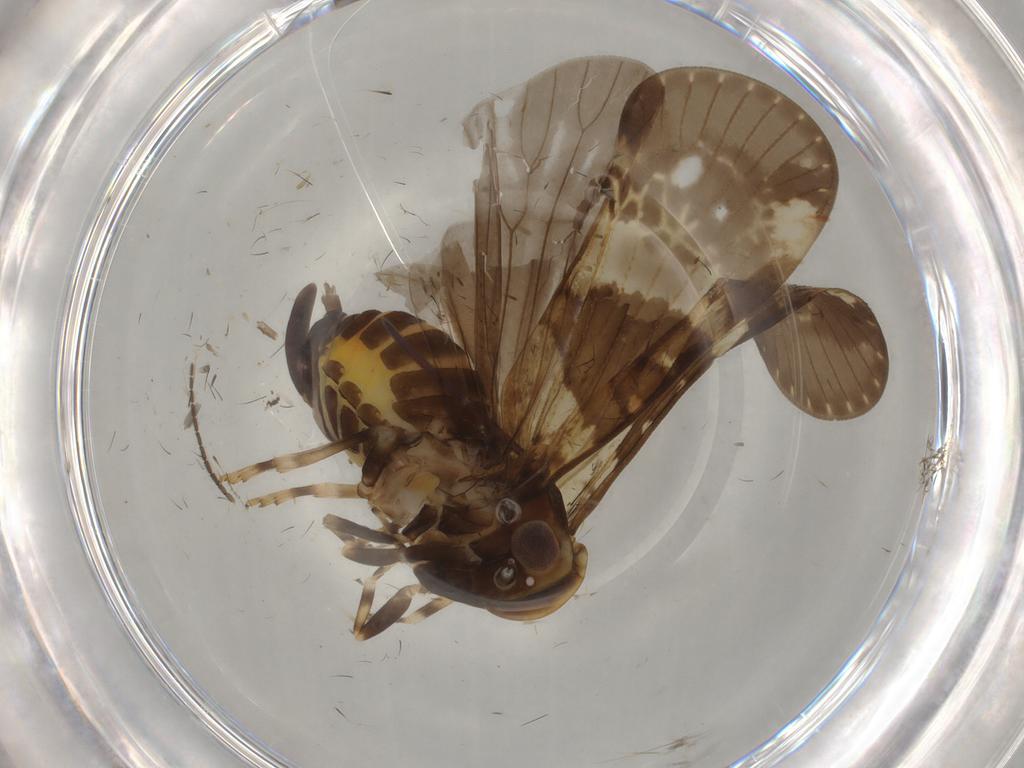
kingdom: Animalia
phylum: Arthropoda
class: Insecta
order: Hemiptera
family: Cixiidae
